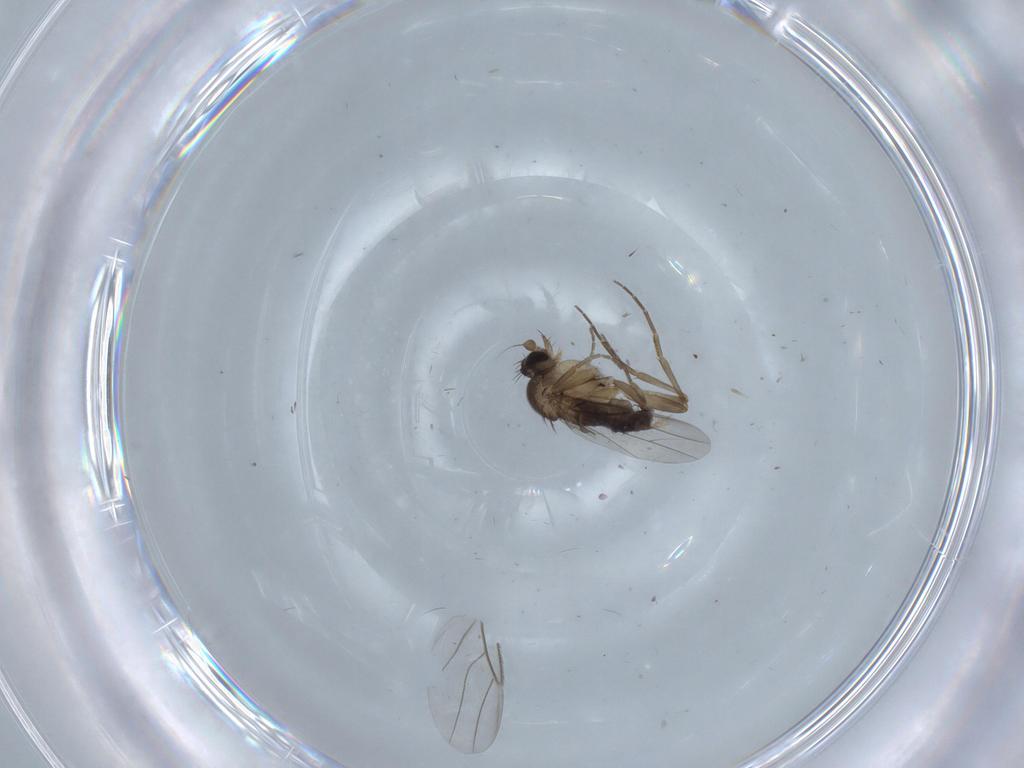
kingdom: Animalia
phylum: Arthropoda
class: Insecta
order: Diptera
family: Phoridae
